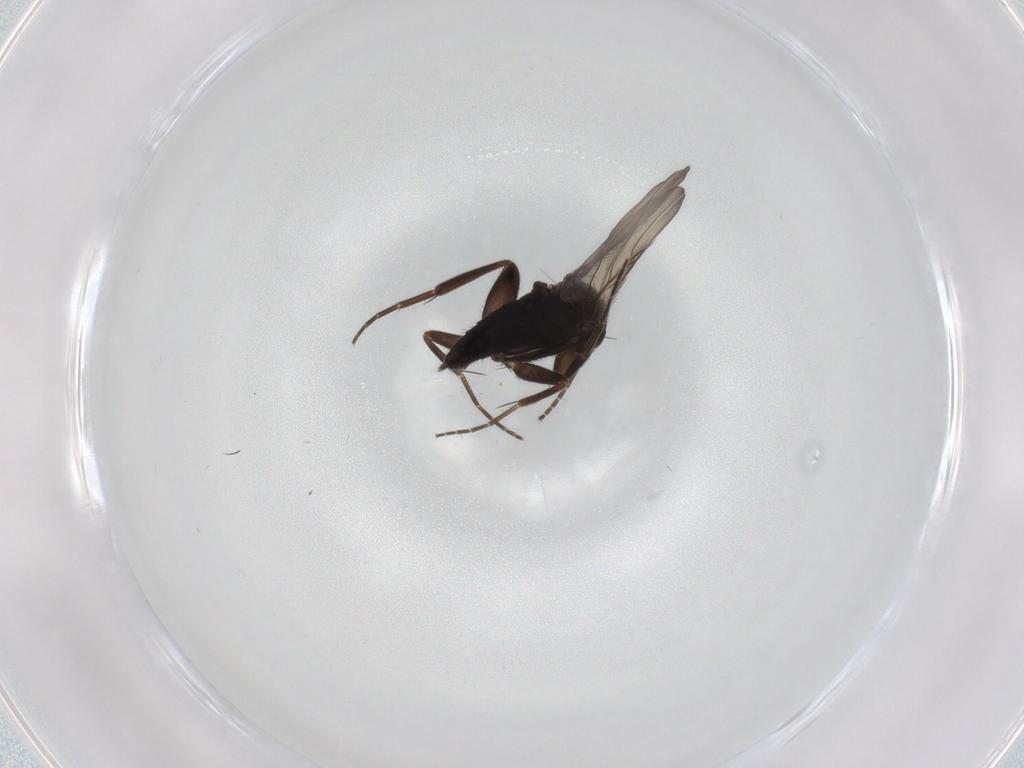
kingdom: Animalia
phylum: Arthropoda
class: Insecta
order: Diptera
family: Phoridae
